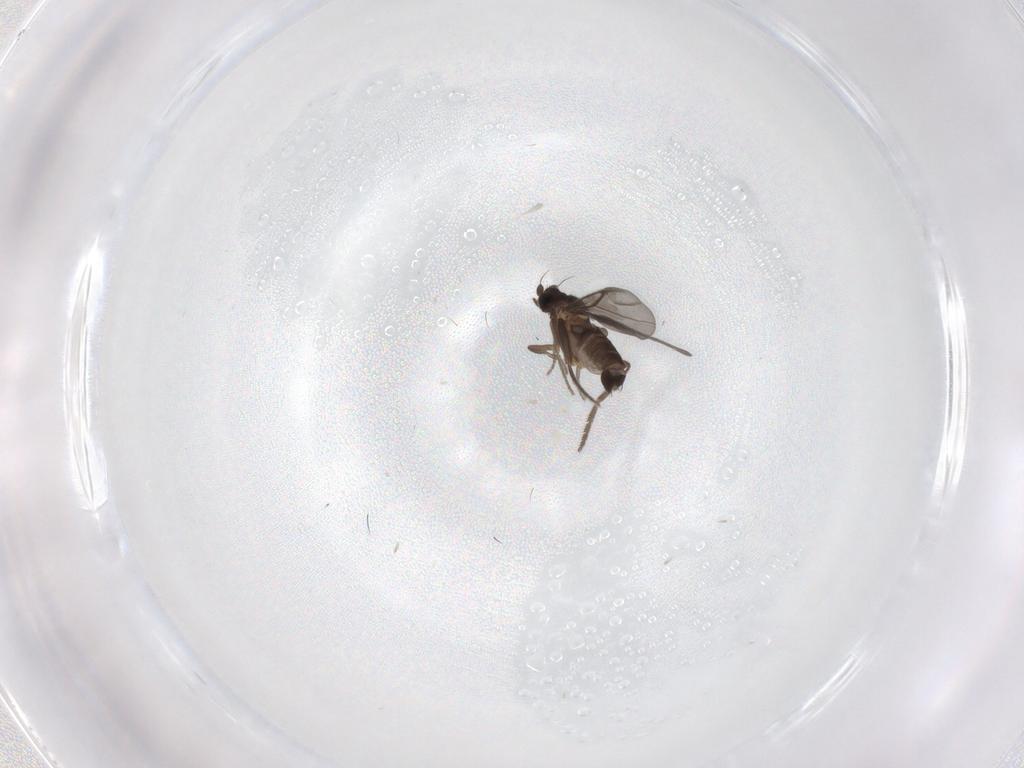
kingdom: Animalia
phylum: Arthropoda
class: Insecta
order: Diptera
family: Phoridae
